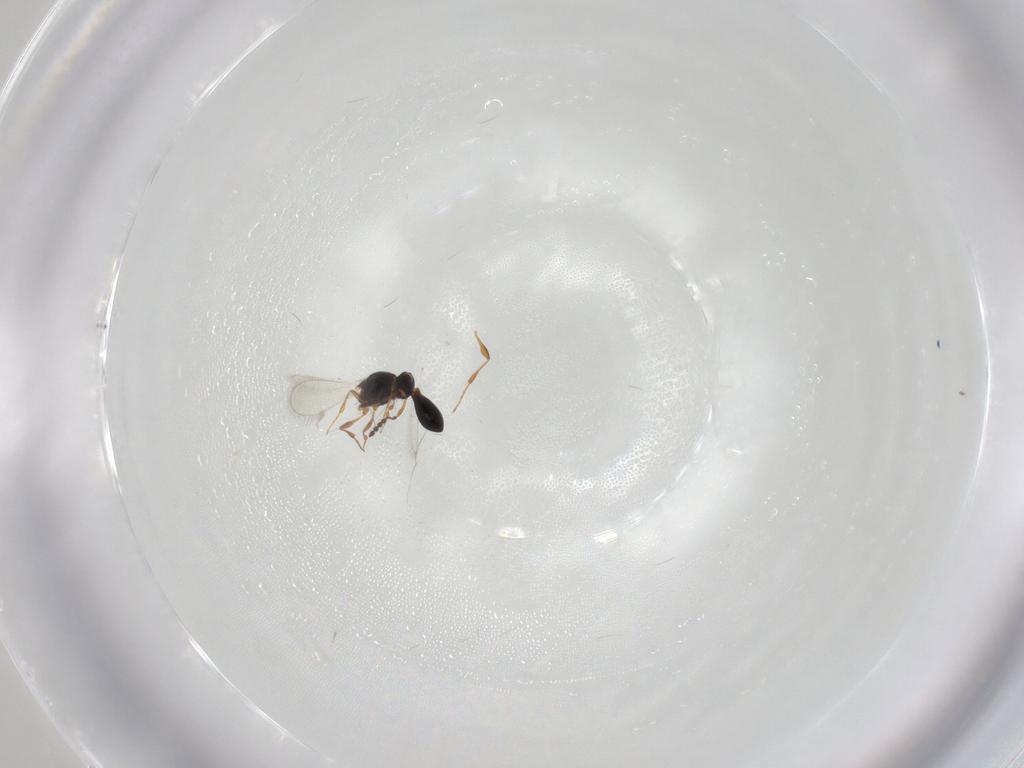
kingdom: Animalia
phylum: Arthropoda
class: Insecta
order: Hymenoptera
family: Platygastridae
